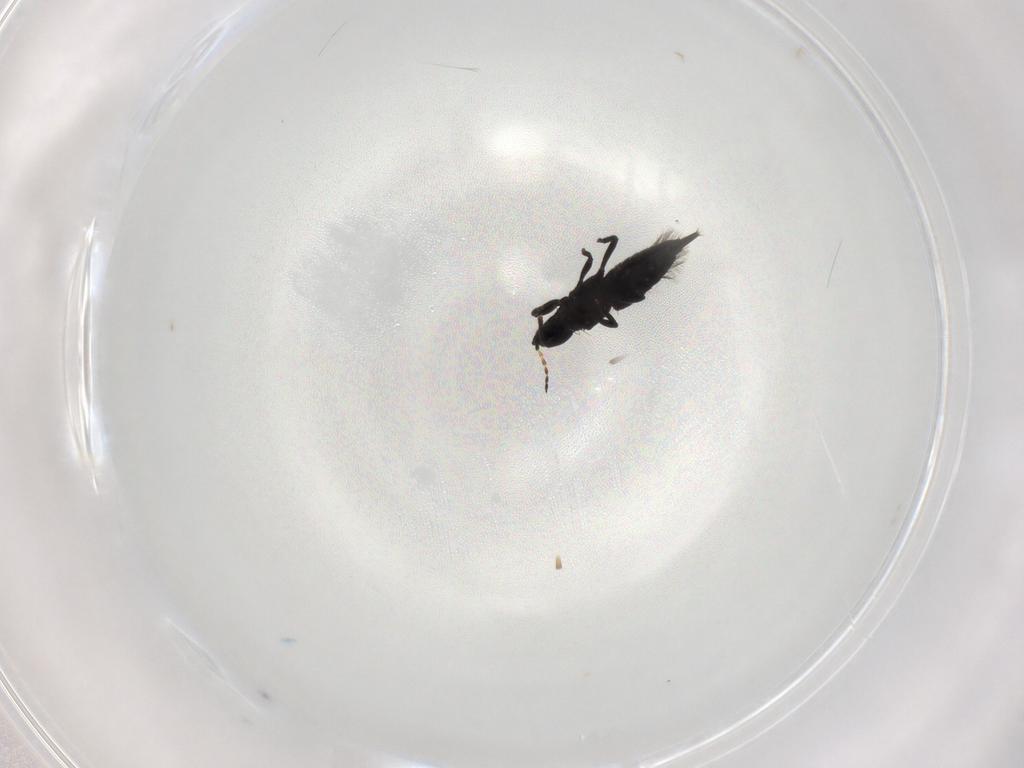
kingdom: Animalia
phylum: Arthropoda
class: Insecta
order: Thysanoptera
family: Phlaeothripidae
